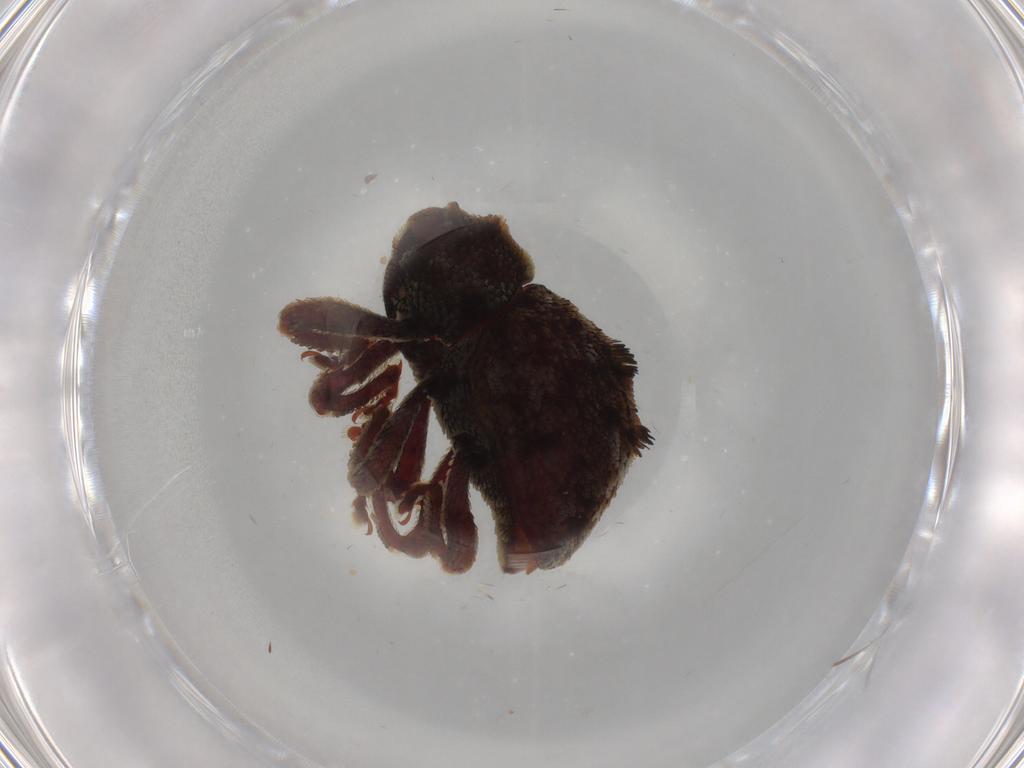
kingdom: Animalia
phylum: Arthropoda
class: Insecta
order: Coleoptera
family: Curculionidae
